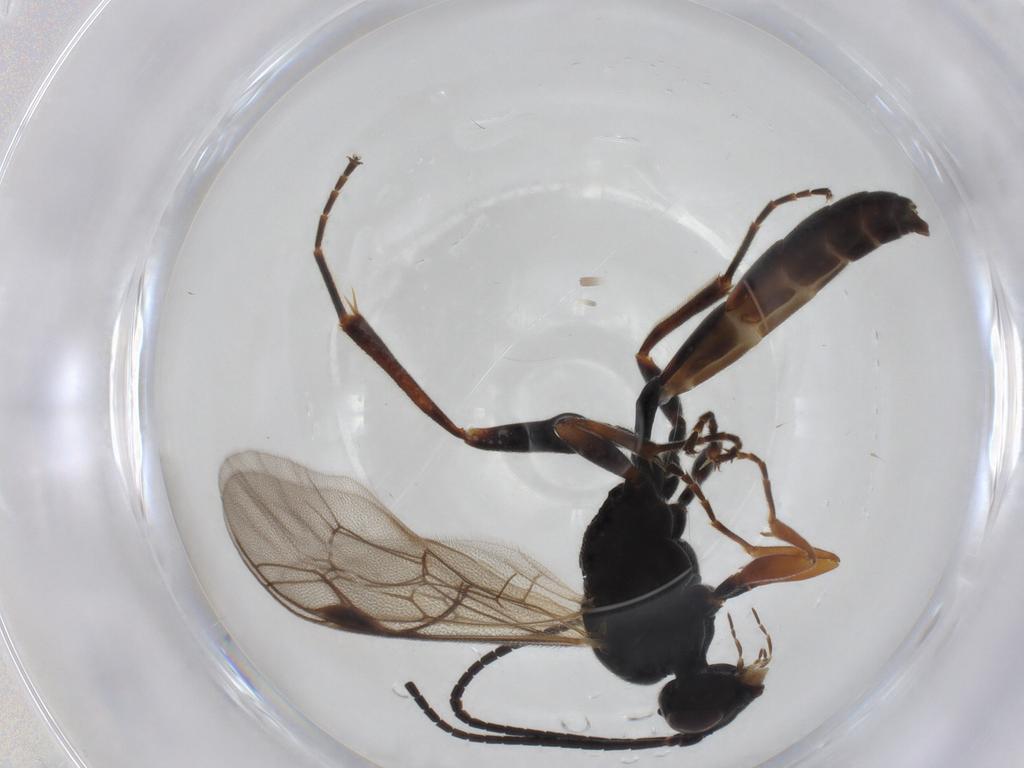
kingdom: Animalia
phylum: Arthropoda
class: Insecta
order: Hymenoptera
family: Ichneumonidae
